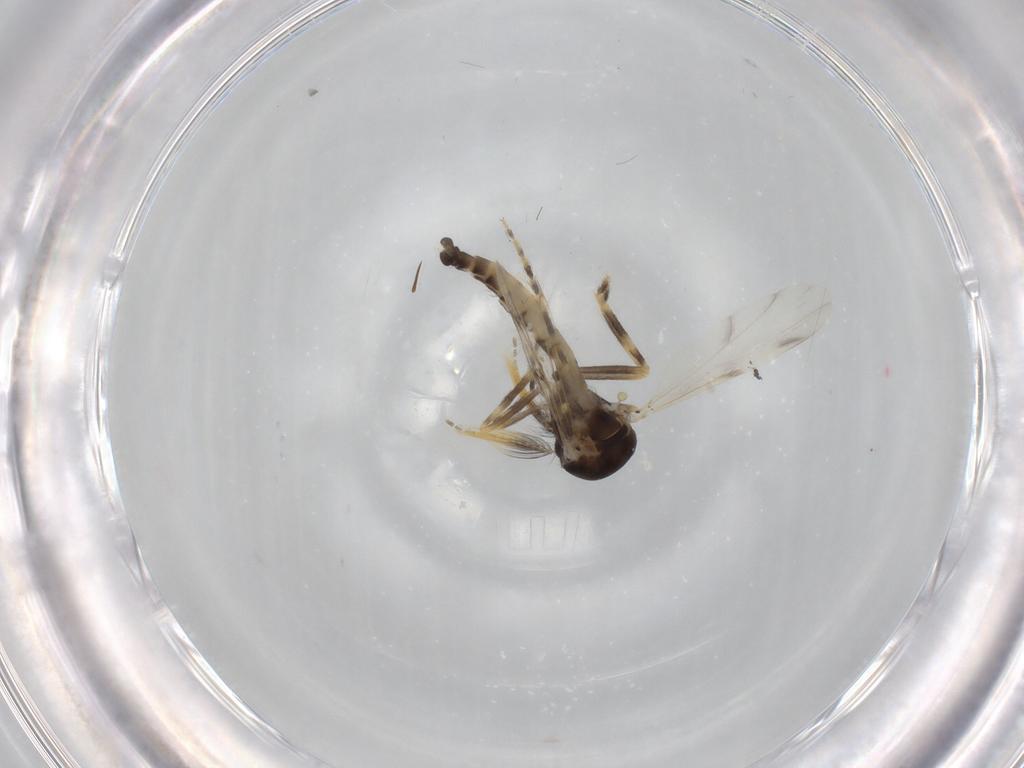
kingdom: Animalia
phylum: Arthropoda
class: Insecta
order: Diptera
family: Ceratopogonidae
